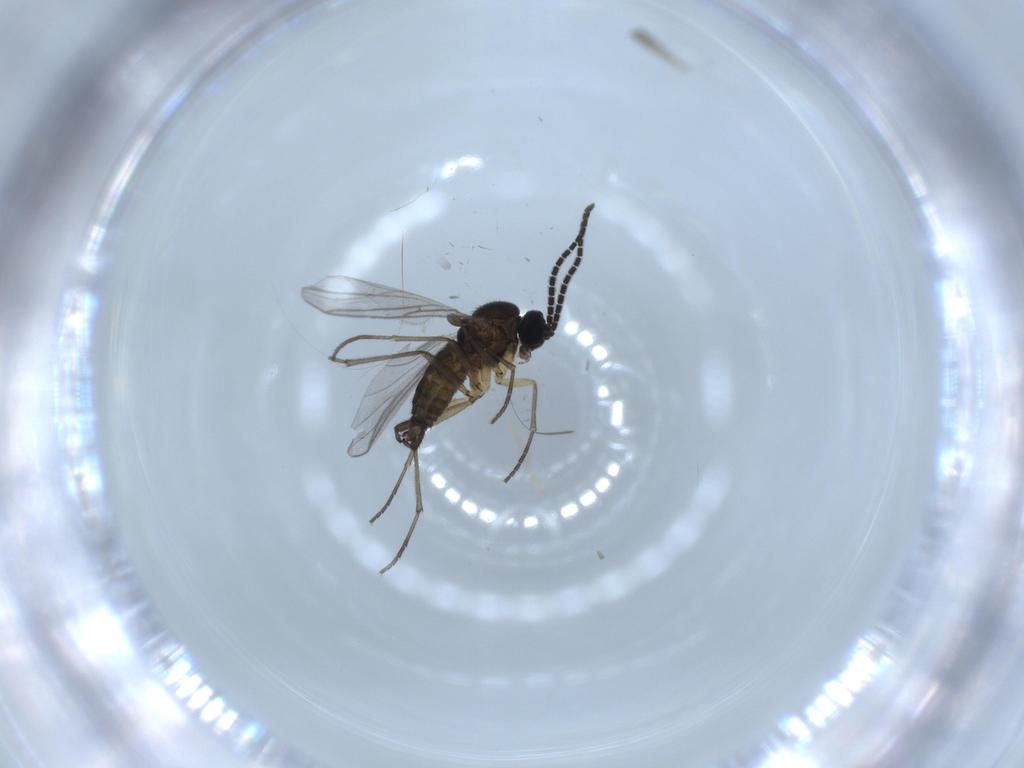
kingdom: Animalia
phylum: Arthropoda
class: Insecta
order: Diptera
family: Sciaridae
